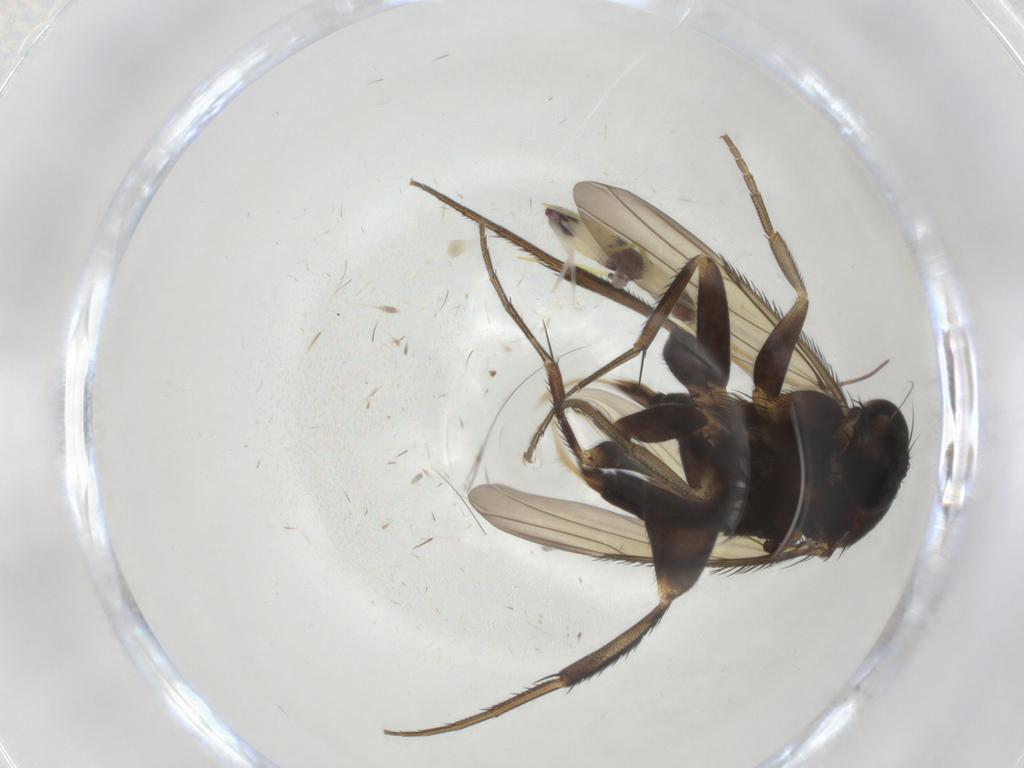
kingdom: Animalia
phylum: Arthropoda
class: Insecta
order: Diptera
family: Phoridae
